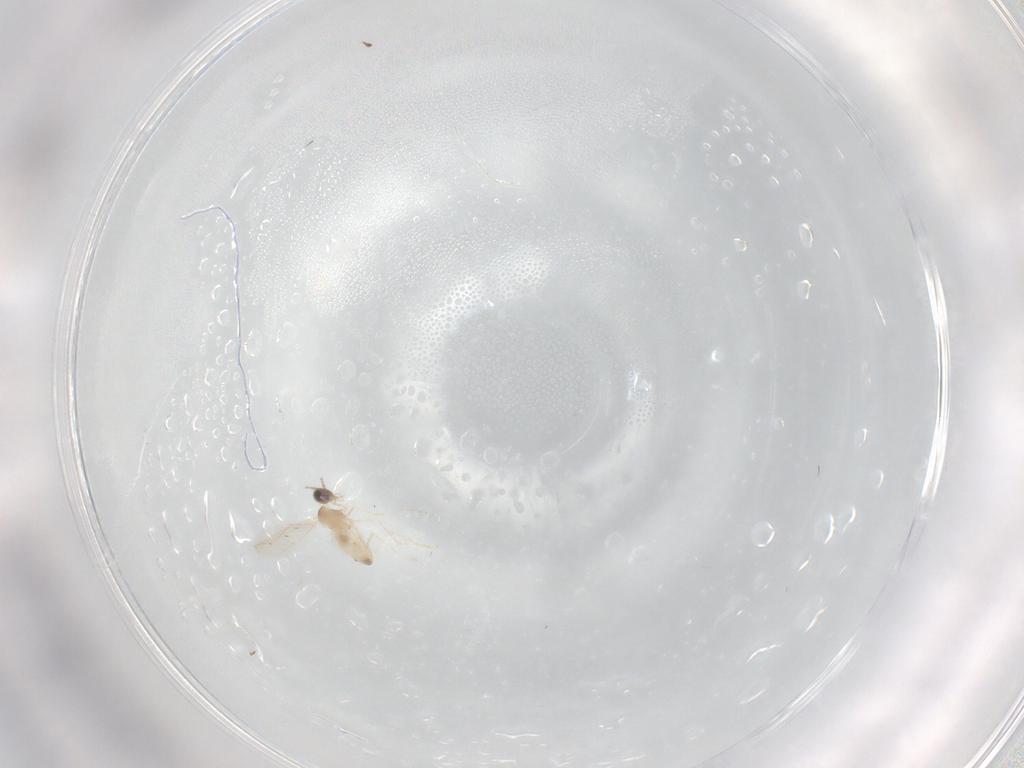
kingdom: Animalia
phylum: Arthropoda
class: Insecta
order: Diptera
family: Cecidomyiidae
